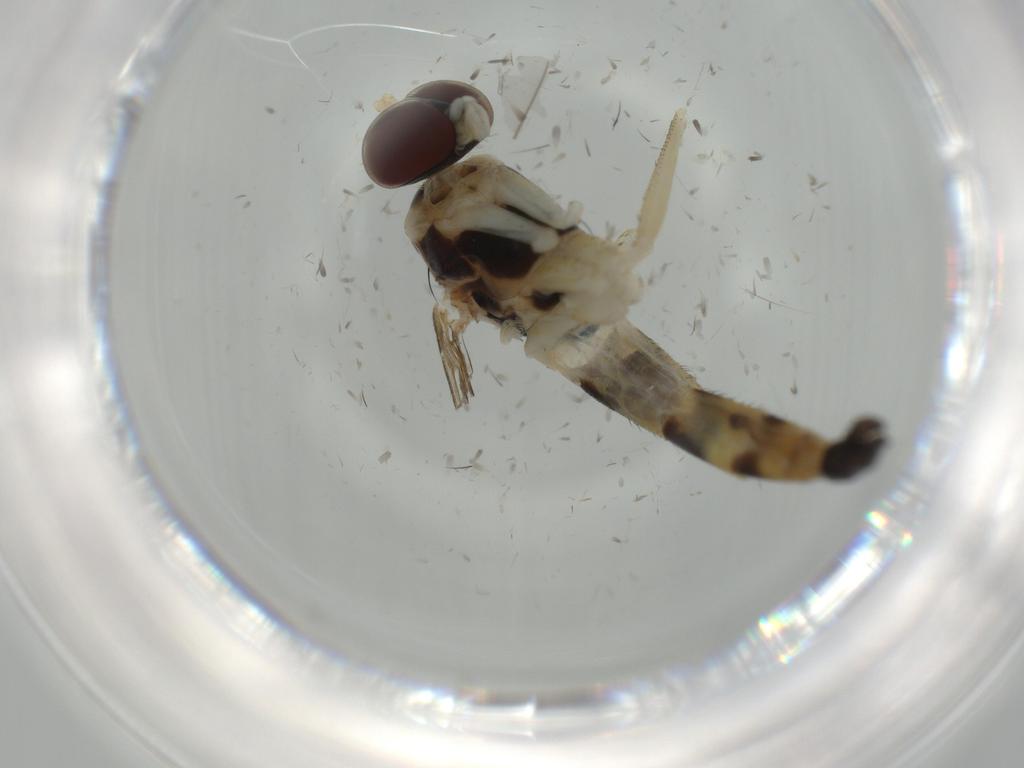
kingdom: Animalia
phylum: Arthropoda
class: Insecta
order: Diptera
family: Chironomidae
